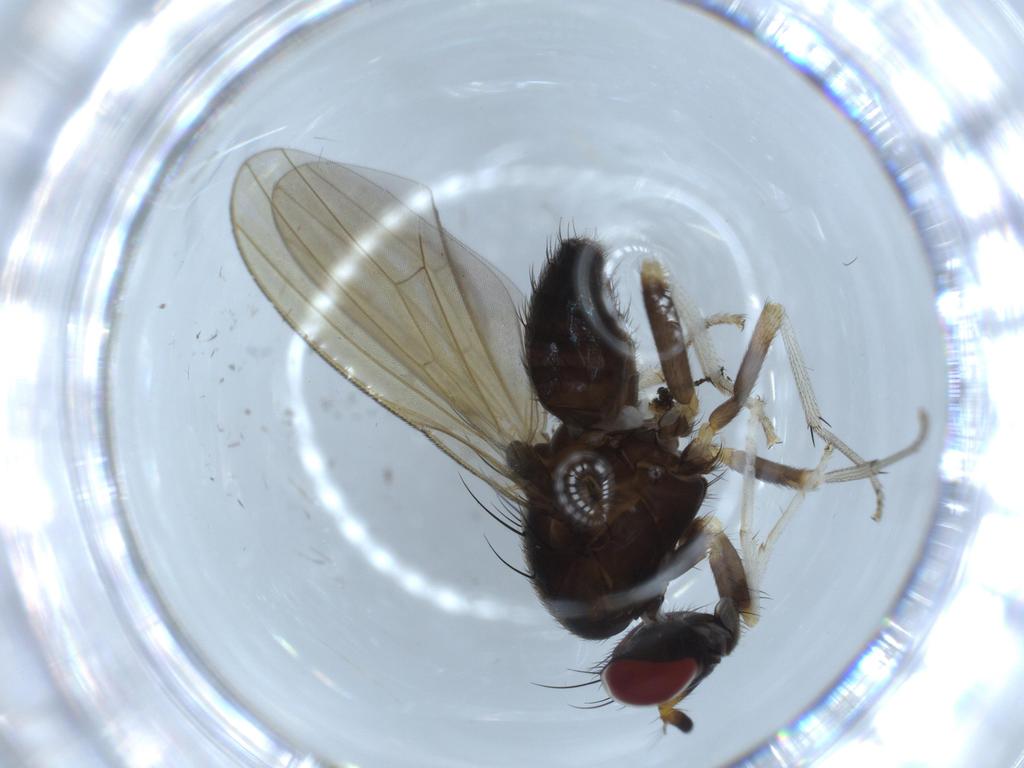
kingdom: Animalia
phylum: Arthropoda
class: Insecta
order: Diptera
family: Psychodidae
